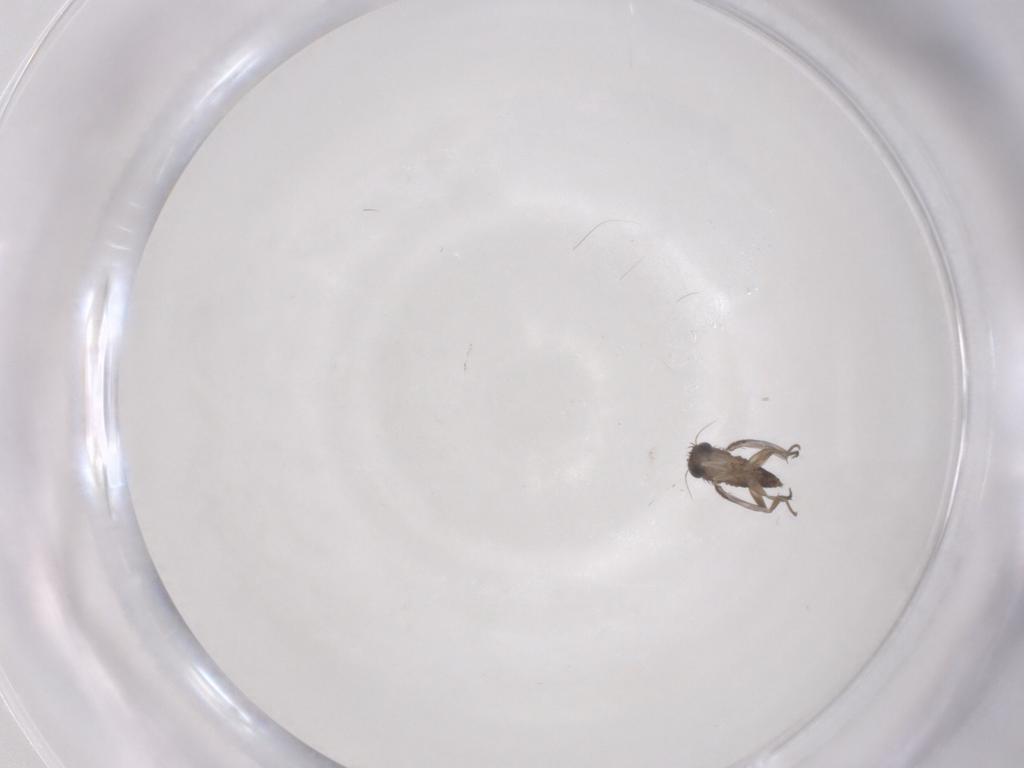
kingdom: Animalia
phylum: Arthropoda
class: Insecta
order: Diptera
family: Phoridae
